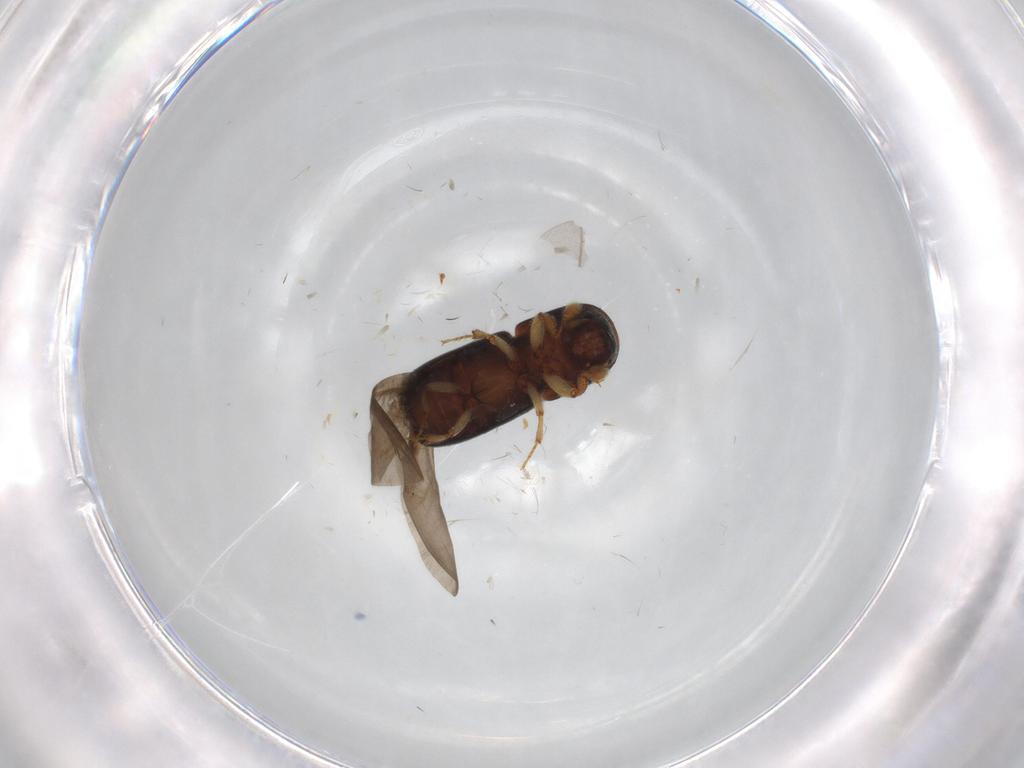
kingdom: Animalia
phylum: Arthropoda
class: Insecta
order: Coleoptera
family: Curculionidae
